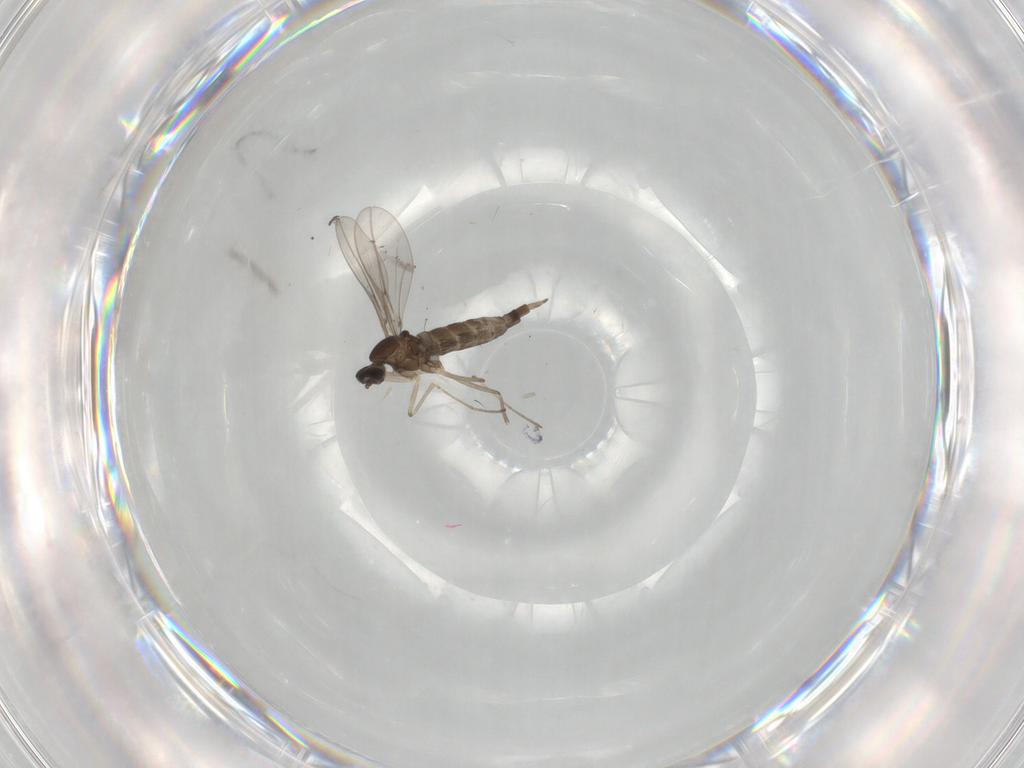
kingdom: Animalia
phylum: Arthropoda
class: Insecta
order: Diptera
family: Cecidomyiidae
